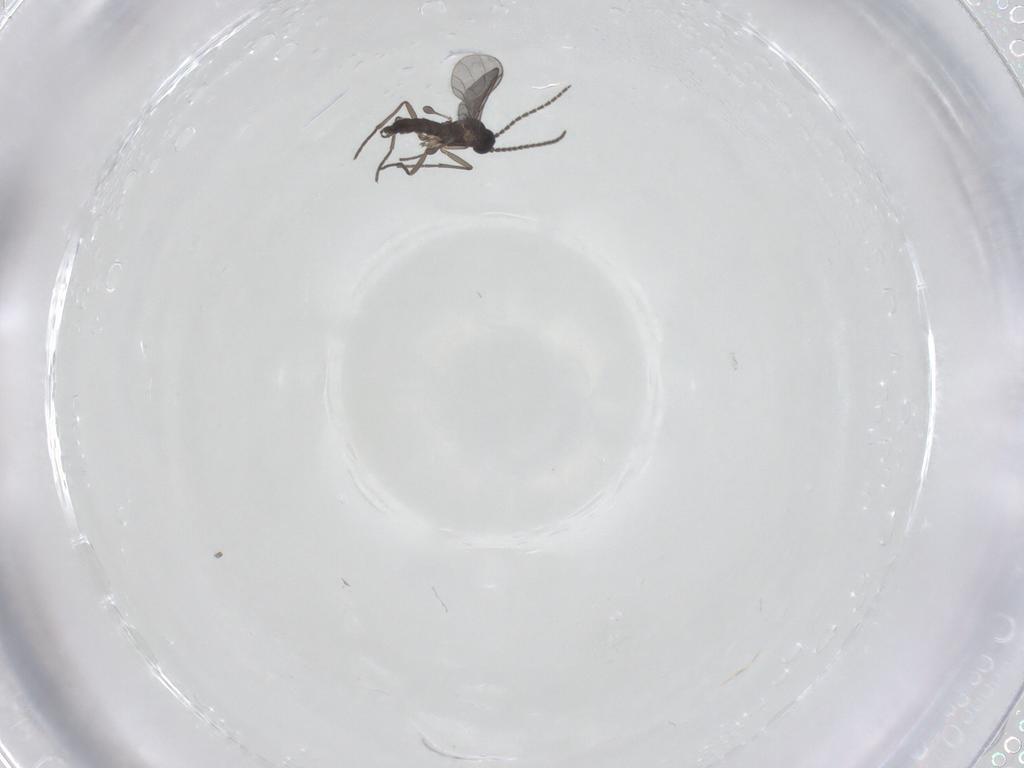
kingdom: Animalia
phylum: Arthropoda
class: Insecta
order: Diptera
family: Sciaridae
